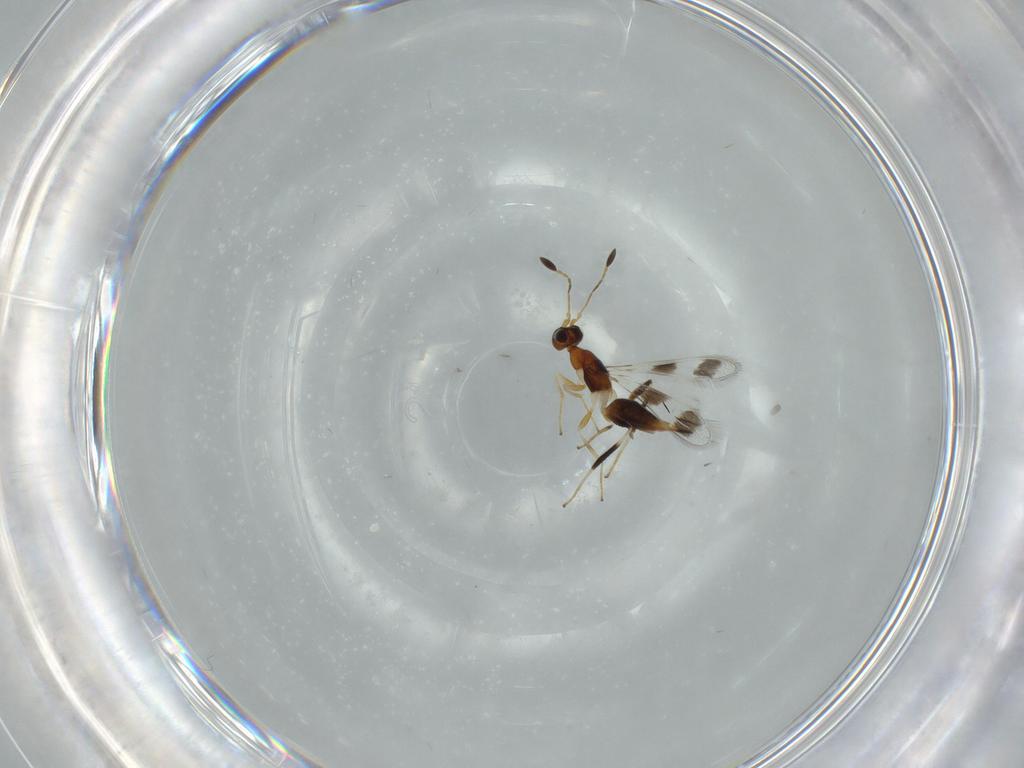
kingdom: Animalia
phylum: Arthropoda
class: Insecta
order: Hymenoptera
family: Mymaridae
